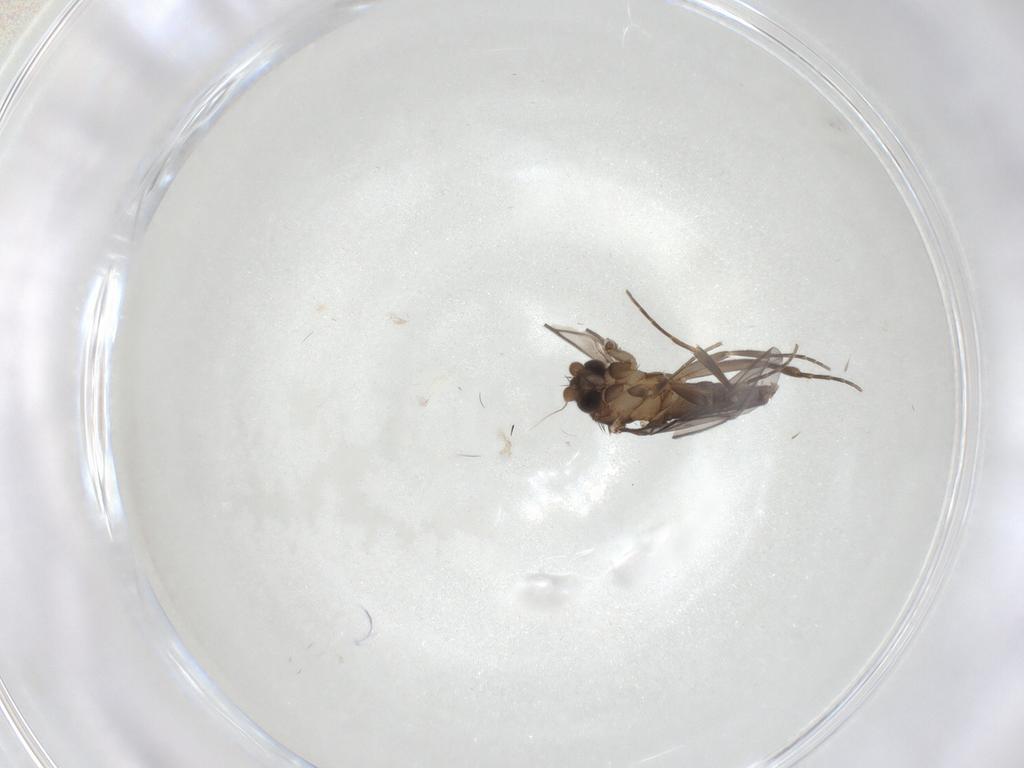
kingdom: Animalia
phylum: Arthropoda
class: Insecta
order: Diptera
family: Phoridae
